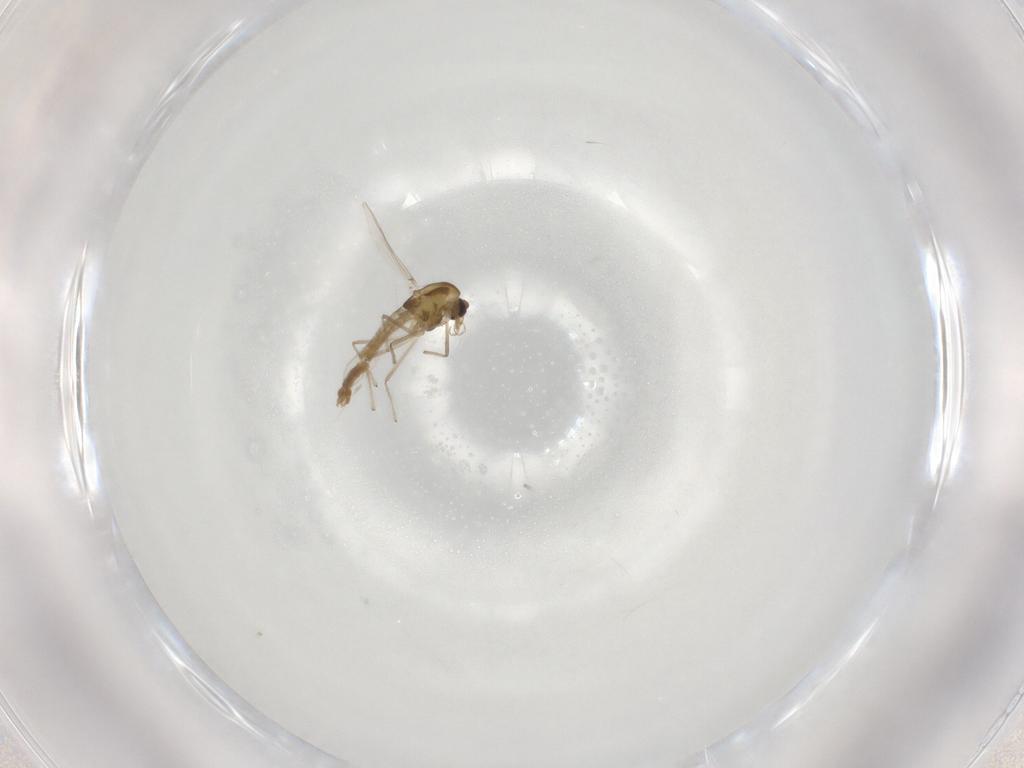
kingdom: Animalia
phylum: Arthropoda
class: Insecta
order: Diptera
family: Chironomidae
